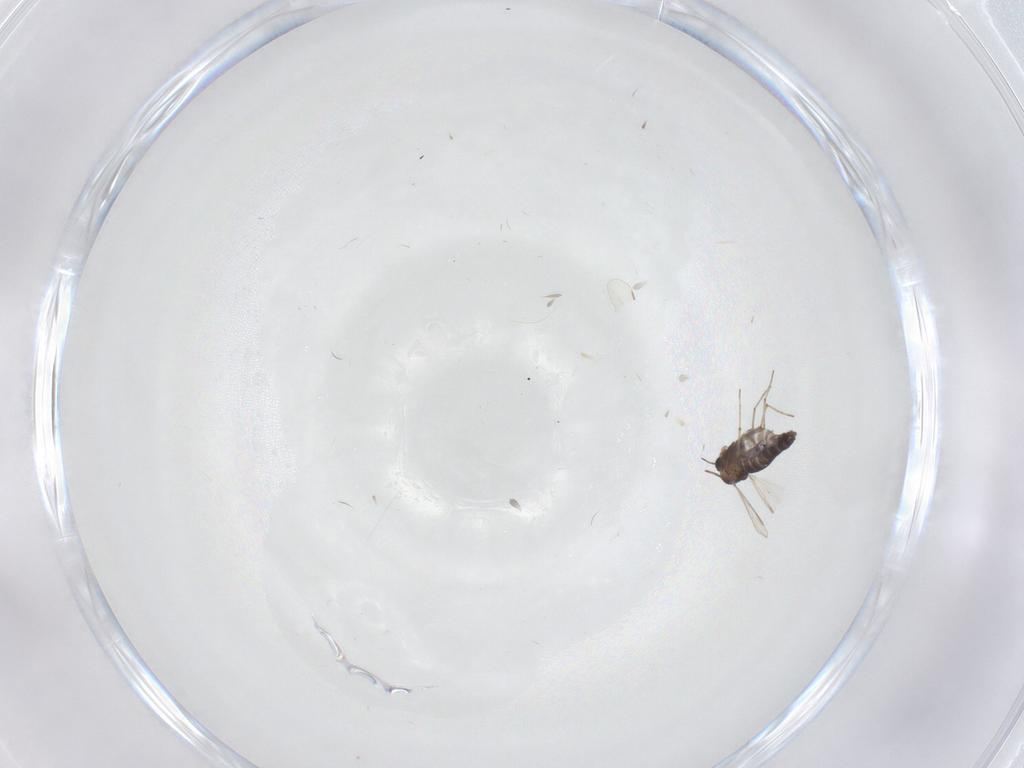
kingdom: Animalia
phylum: Arthropoda
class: Insecta
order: Diptera
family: Chironomidae
